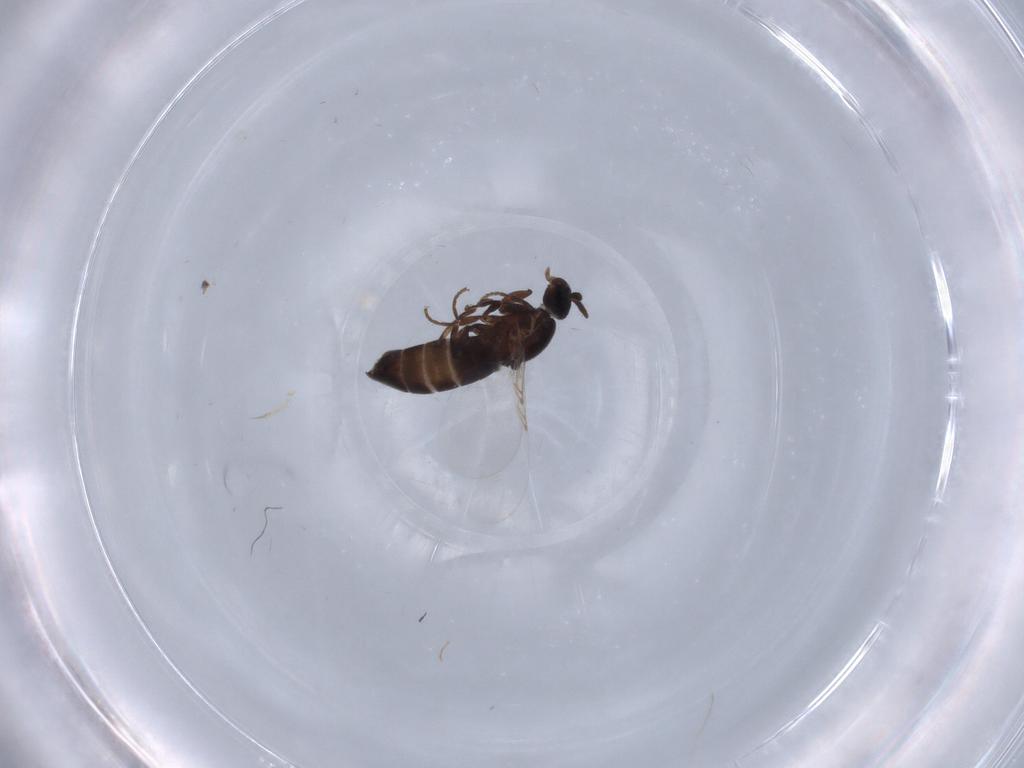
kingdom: Animalia
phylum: Arthropoda
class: Insecta
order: Diptera
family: Scatopsidae
